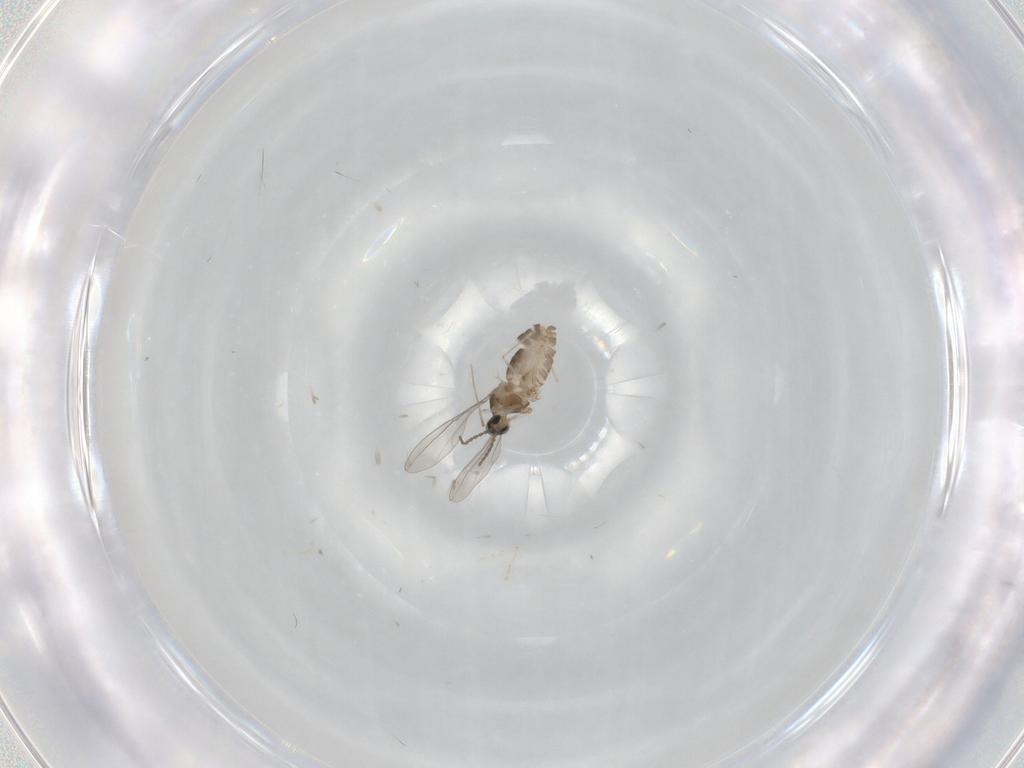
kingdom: Animalia
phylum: Arthropoda
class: Insecta
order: Diptera
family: Cecidomyiidae
